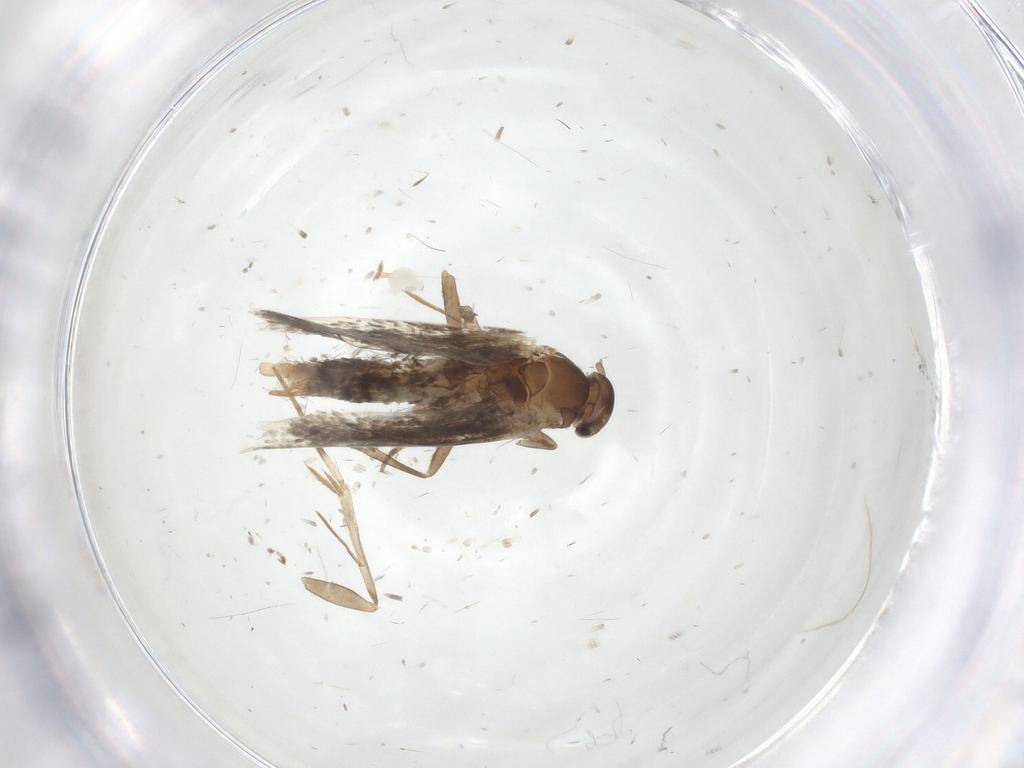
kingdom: Animalia
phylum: Arthropoda
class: Insecta
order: Lepidoptera
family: Elachistidae
